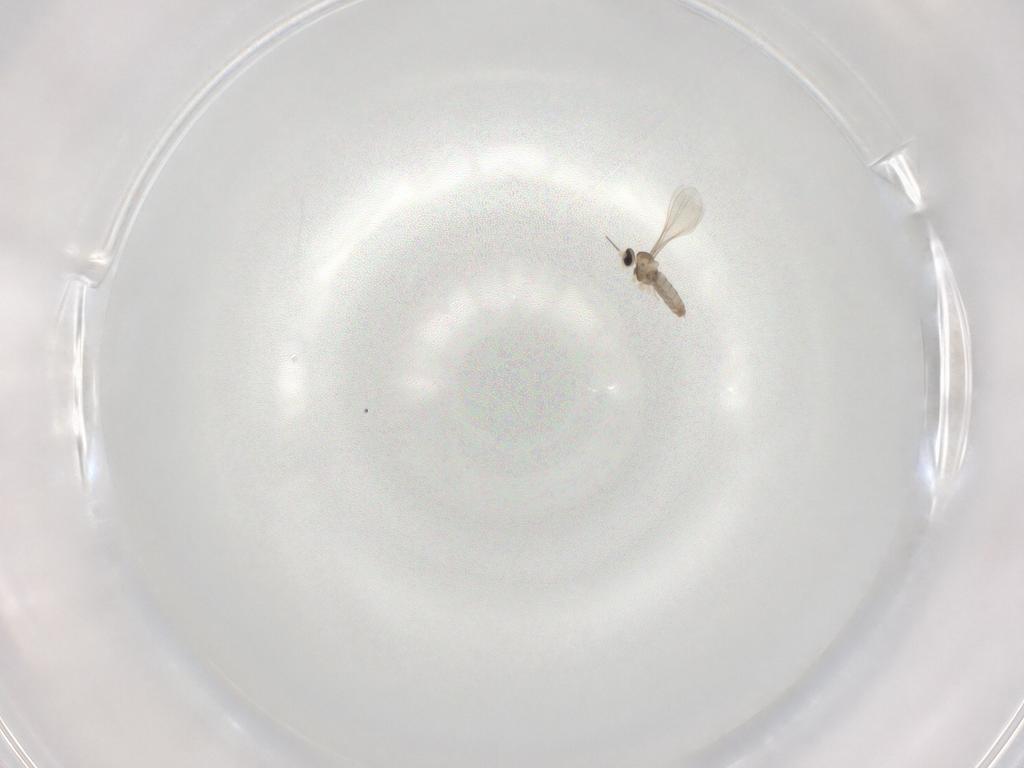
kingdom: Animalia
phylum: Arthropoda
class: Insecta
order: Diptera
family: Cecidomyiidae
